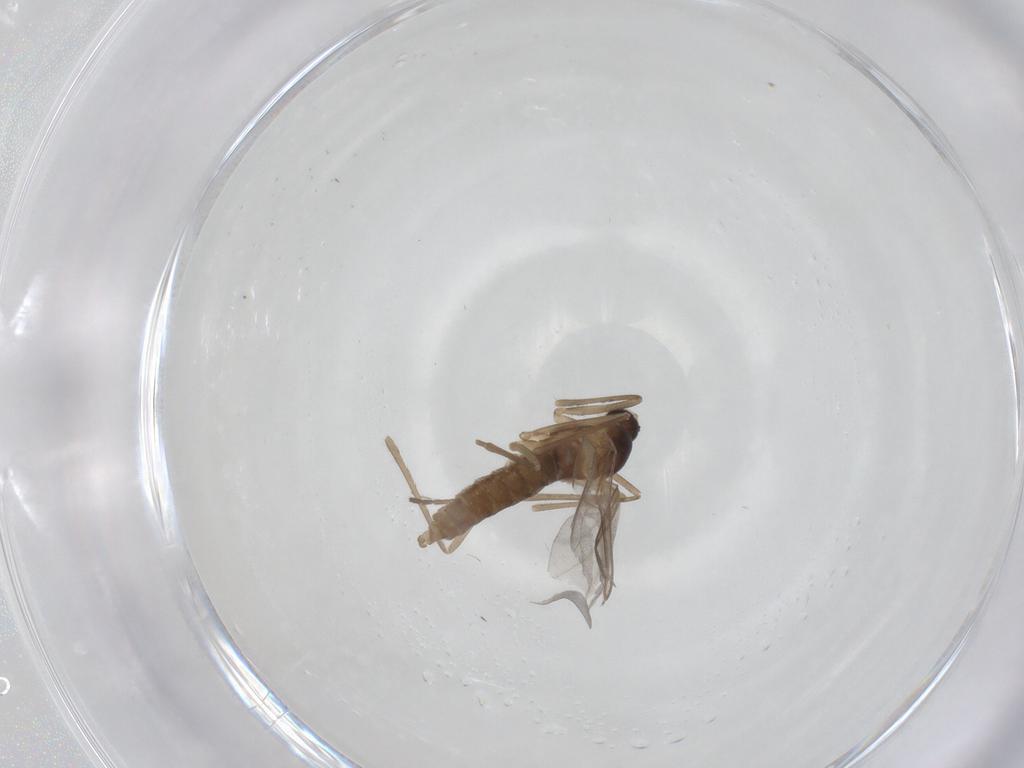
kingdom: Animalia
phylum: Arthropoda
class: Insecta
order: Diptera
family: Cecidomyiidae
